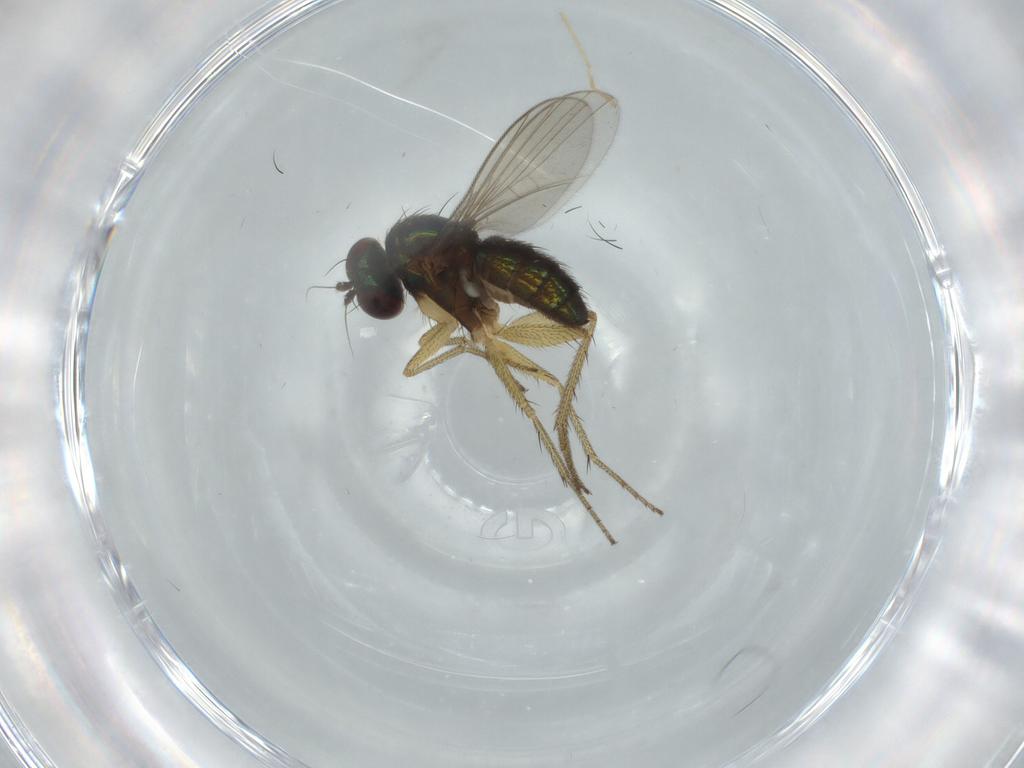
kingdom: Animalia
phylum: Arthropoda
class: Insecta
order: Diptera
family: Dolichopodidae
